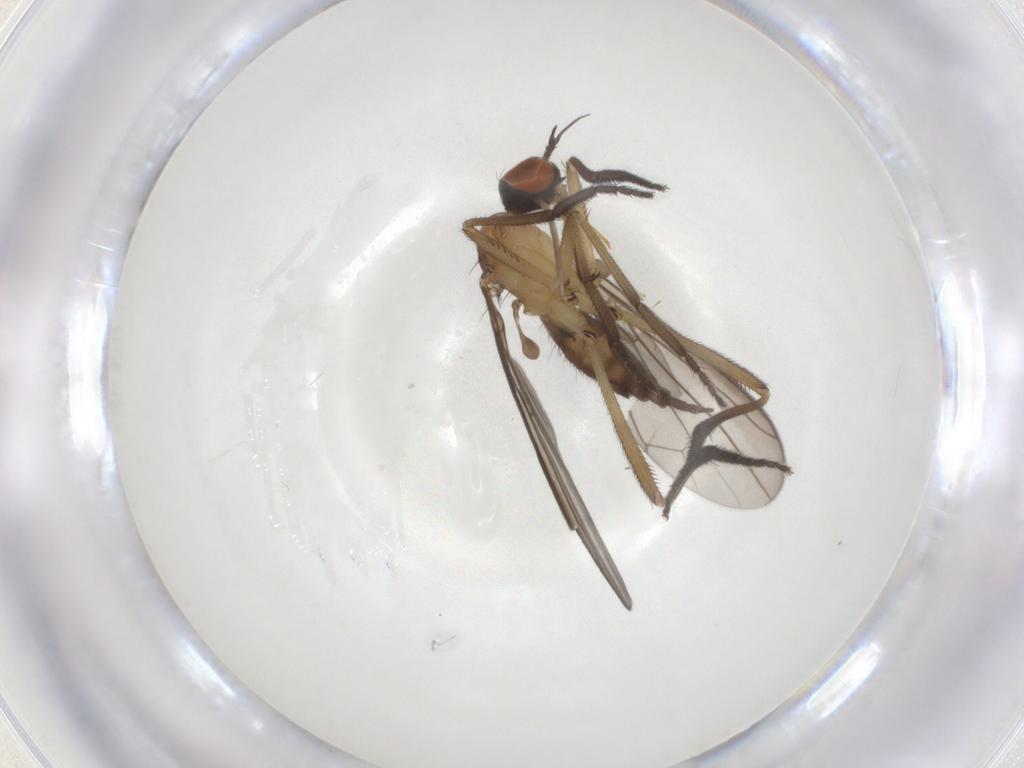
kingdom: Animalia
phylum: Arthropoda
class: Insecta
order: Diptera
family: Empididae
